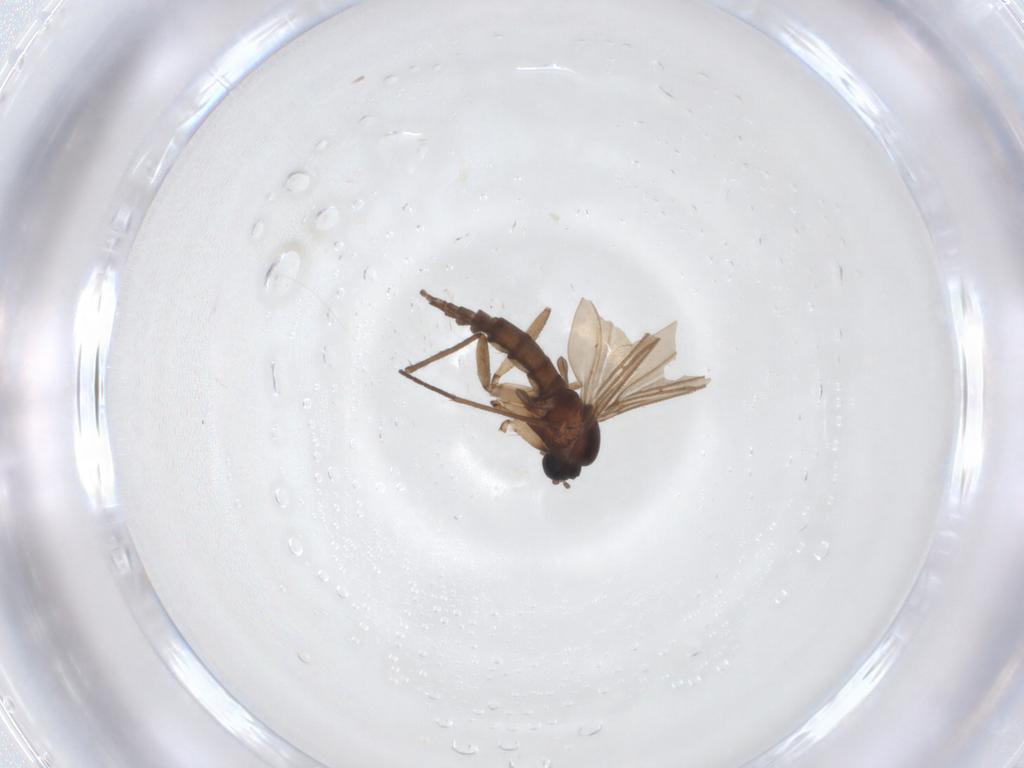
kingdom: Animalia
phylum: Arthropoda
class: Insecta
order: Diptera
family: Sciaridae
